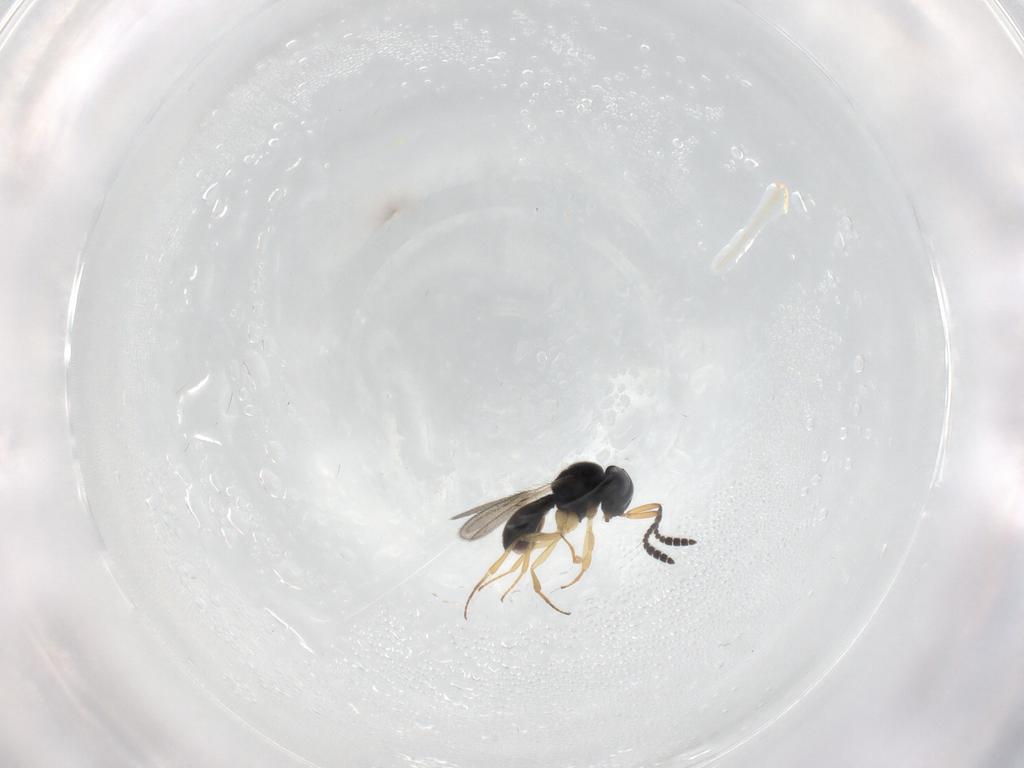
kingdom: Animalia
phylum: Arthropoda
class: Insecta
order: Hymenoptera
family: Scelionidae
